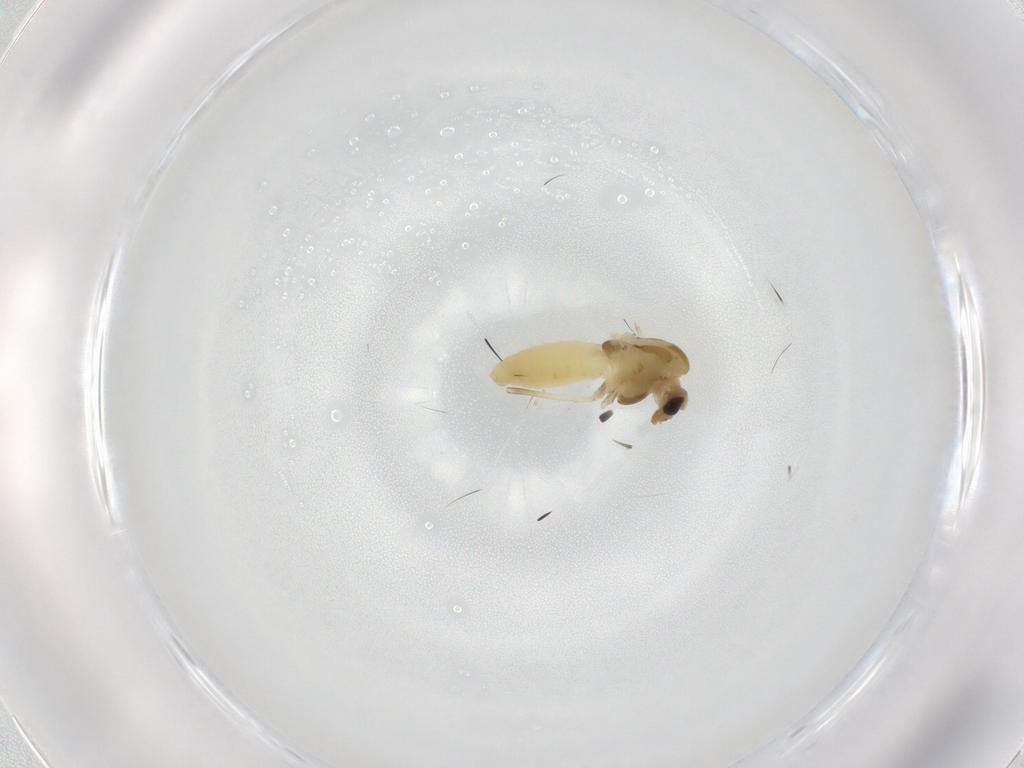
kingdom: Animalia
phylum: Arthropoda
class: Insecta
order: Diptera
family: Chironomidae
